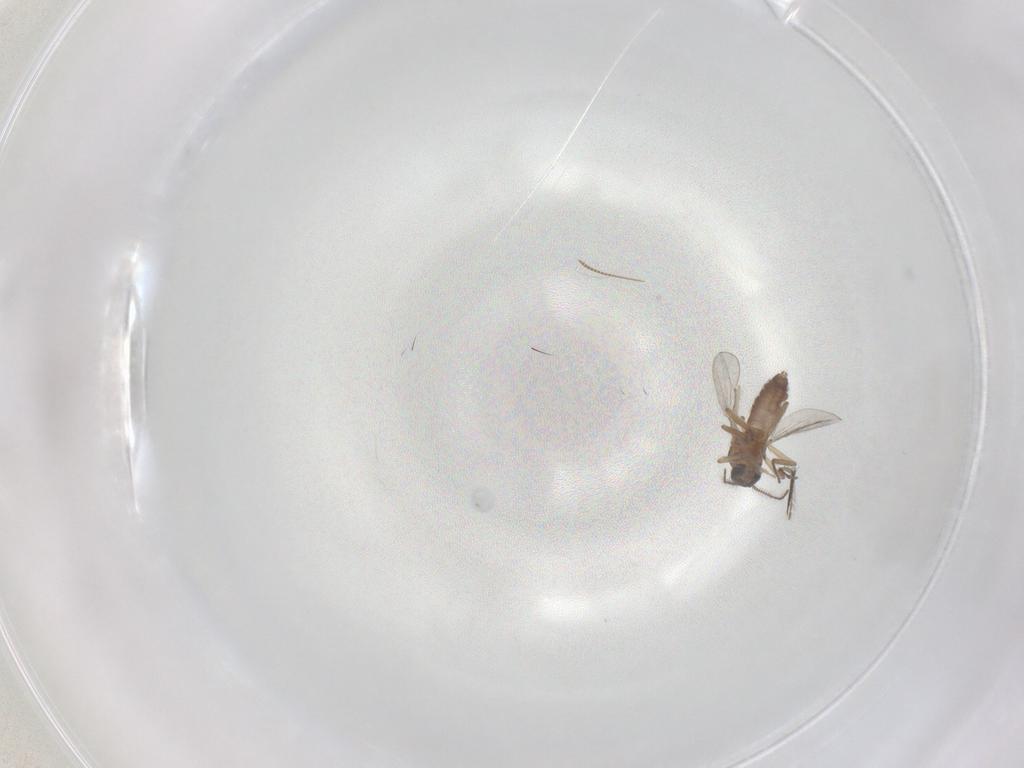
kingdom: Animalia
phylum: Arthropoda
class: Insecta
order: Diptera
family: Chironomidae
